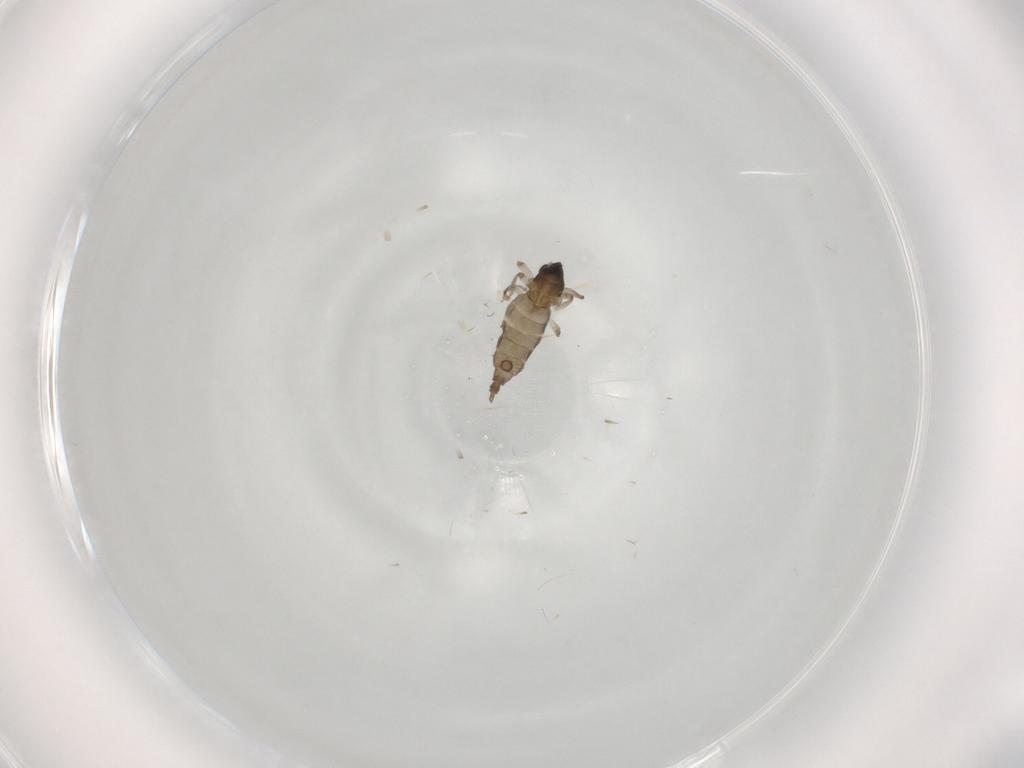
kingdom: Animalia
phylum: Arthropoda
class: Insecta
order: Diptera
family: Cecidomyiidae
